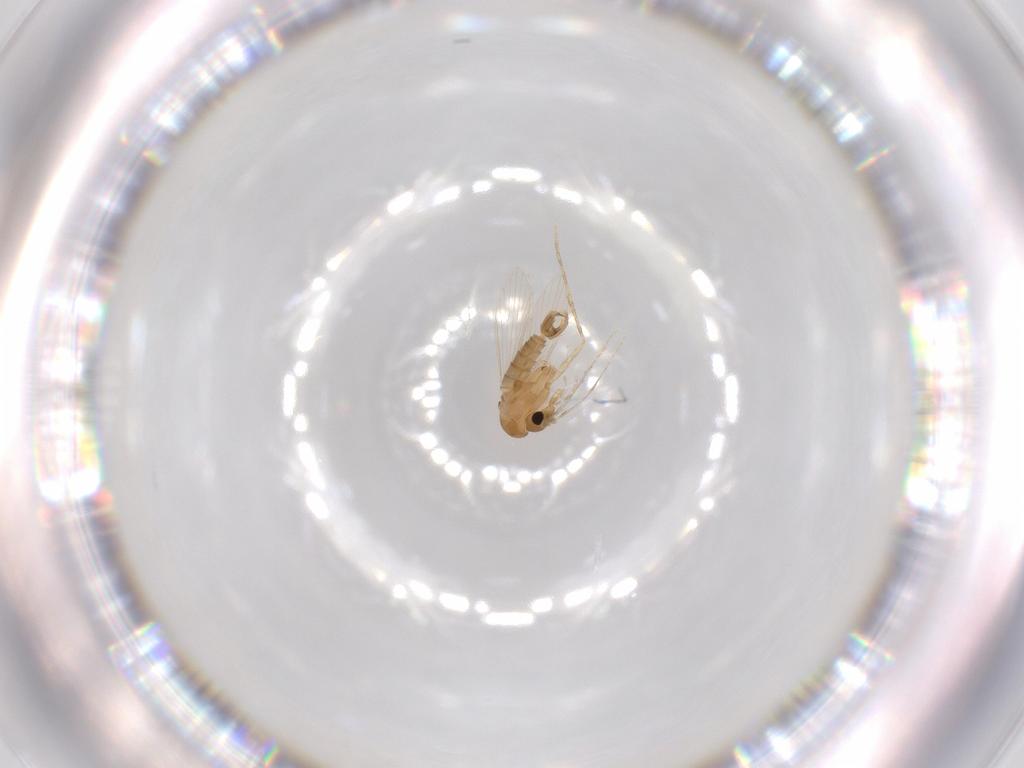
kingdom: Animalia
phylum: Arthropoda
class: Insecta
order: Diptera
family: Psychodidae
